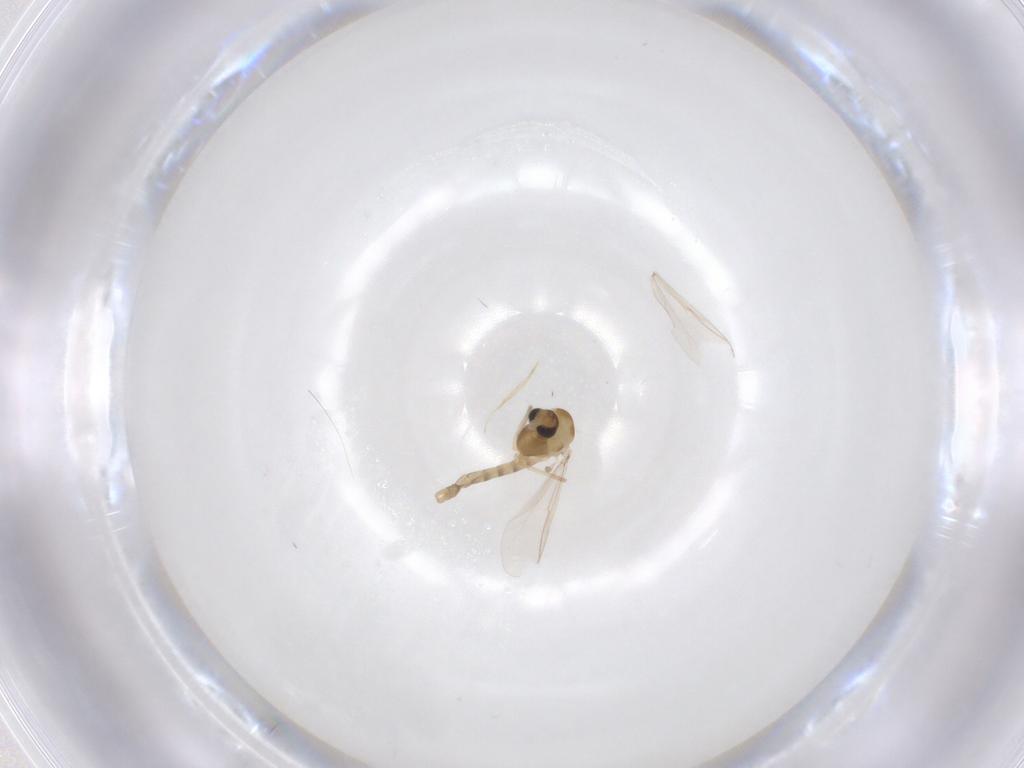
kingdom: Animalia
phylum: Arthropoda
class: Insecta
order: Diptera
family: Chironomidae
